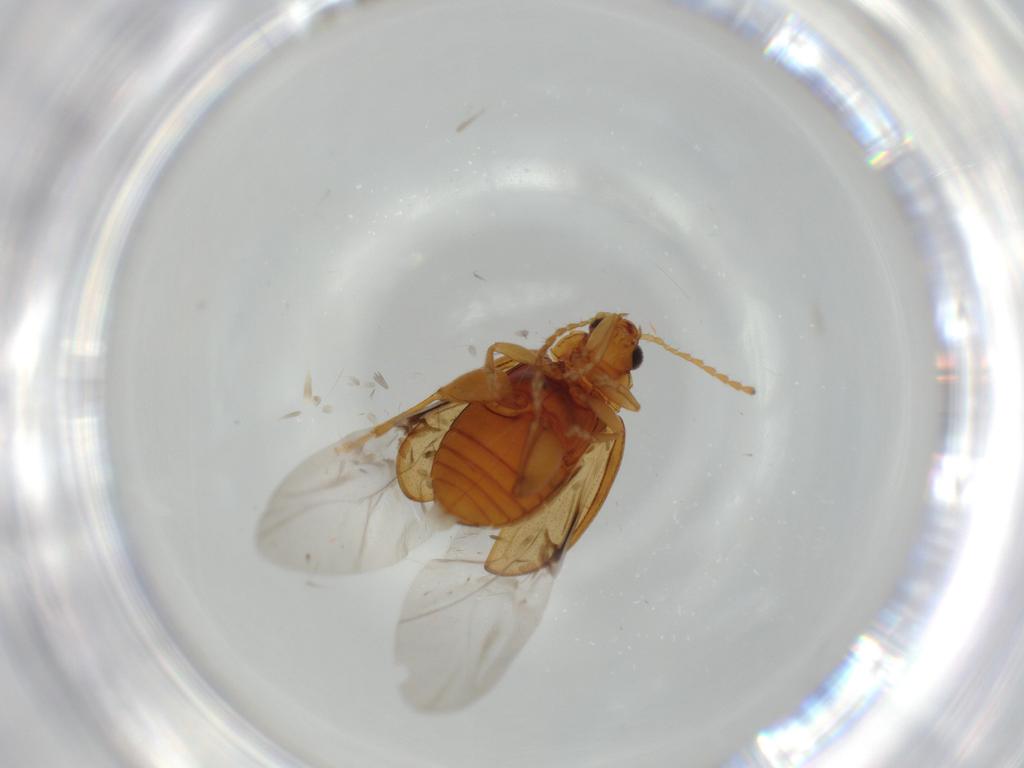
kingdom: Animalia
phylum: Arthropoda
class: Insecta
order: Coleoptera
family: Chrysomelidae
